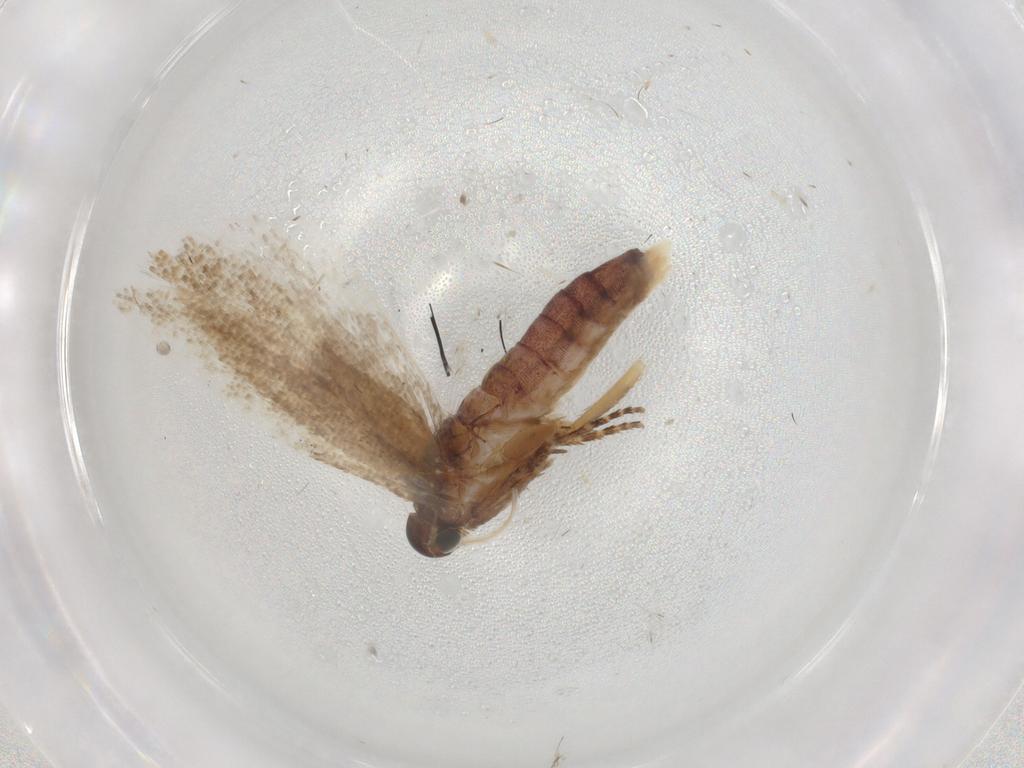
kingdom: Animalia
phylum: Arthropoda
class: Insecta
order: Lepidoptera
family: Gelechiidae
